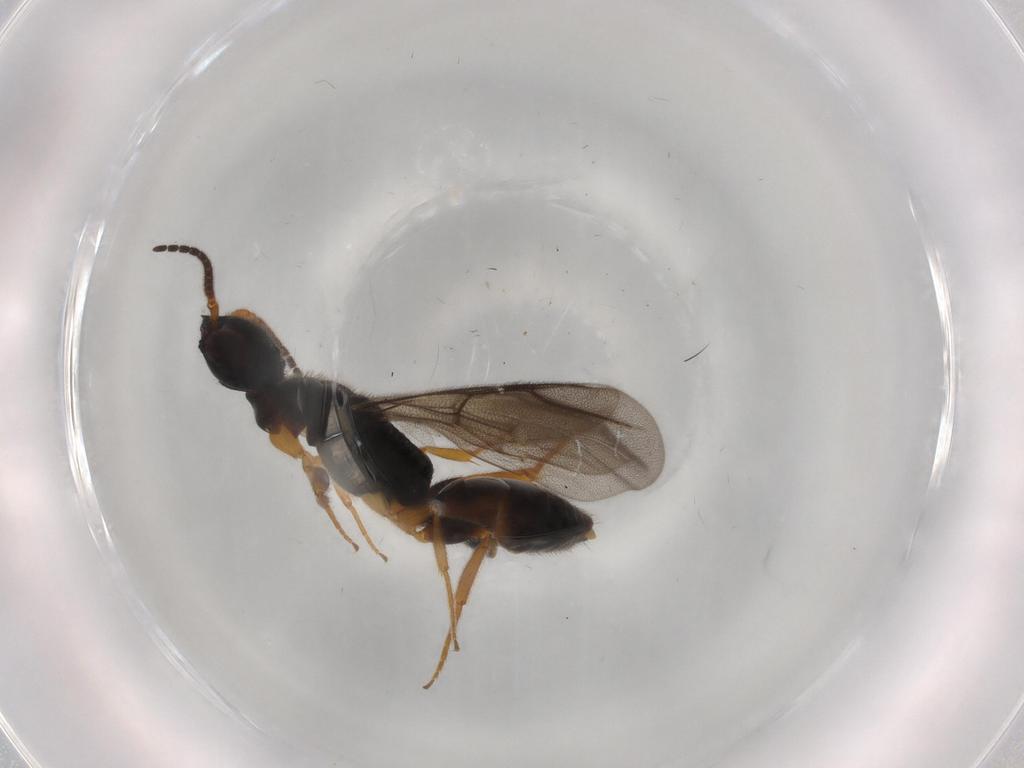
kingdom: Animalia
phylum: Arthropoda
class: Insecta
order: Hymenoptera
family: Bethylidae
